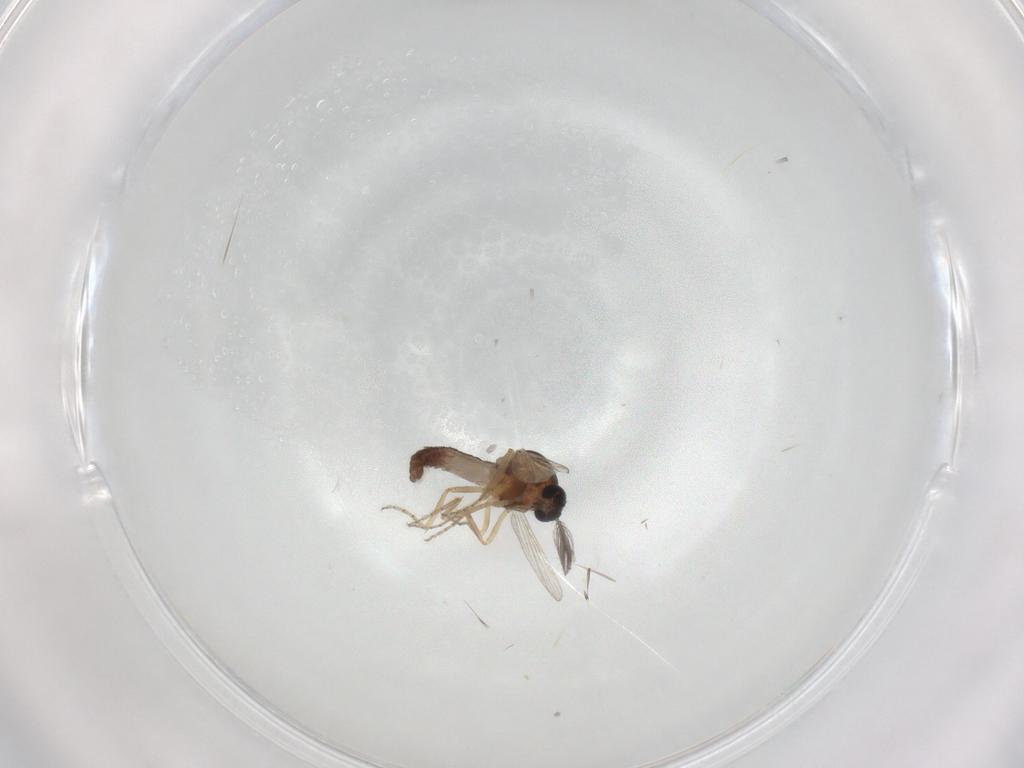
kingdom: Animalia
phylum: Arthropoda
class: Insecta
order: Diptera
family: Ceratopogonidae
